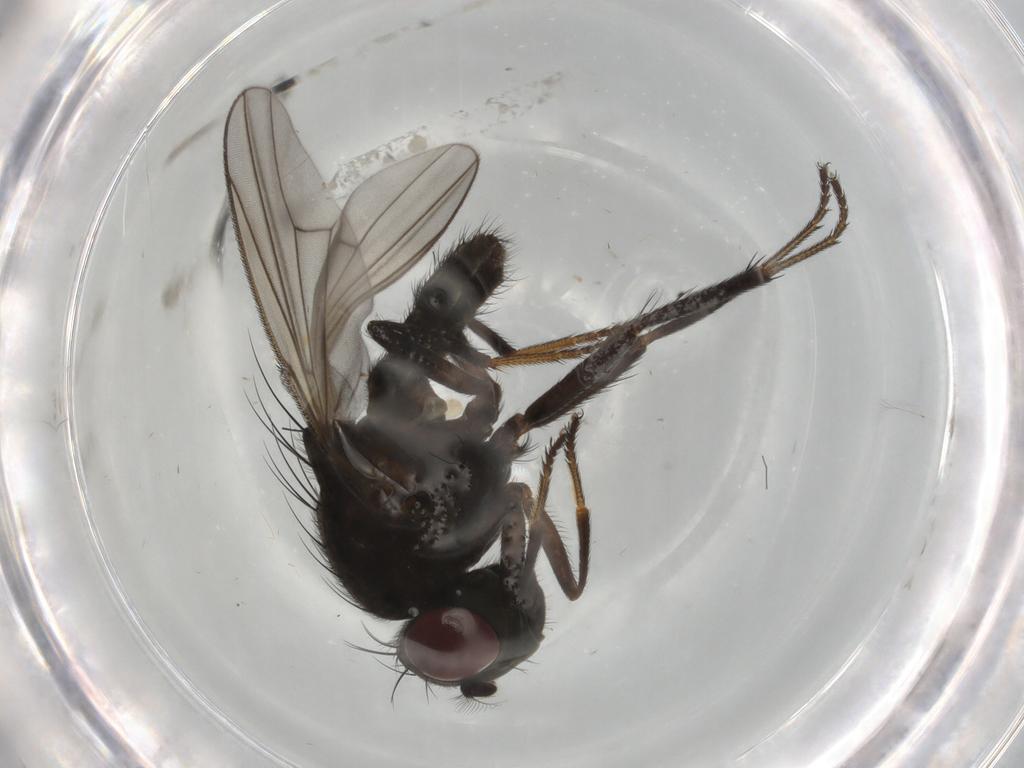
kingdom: Animalia
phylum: Arthropoda
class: Insecta
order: Diptera
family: Ephydridae
